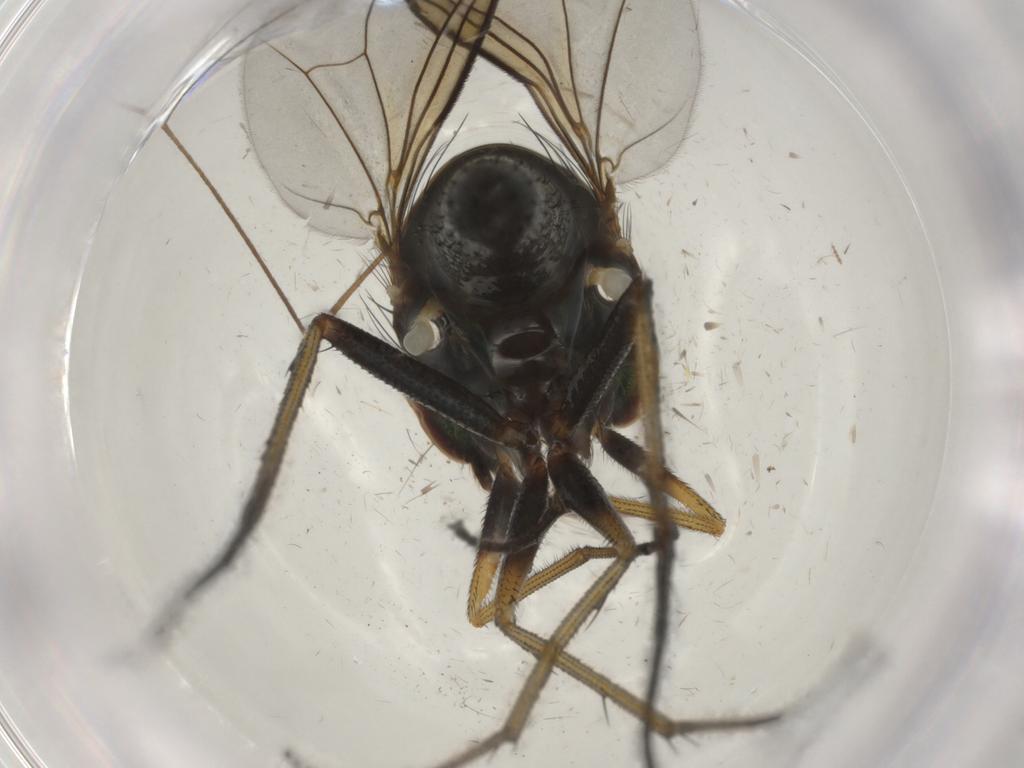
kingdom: Animalia
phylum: Arthropoda
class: Insecta
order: Diptera
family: Dolichopodidae
